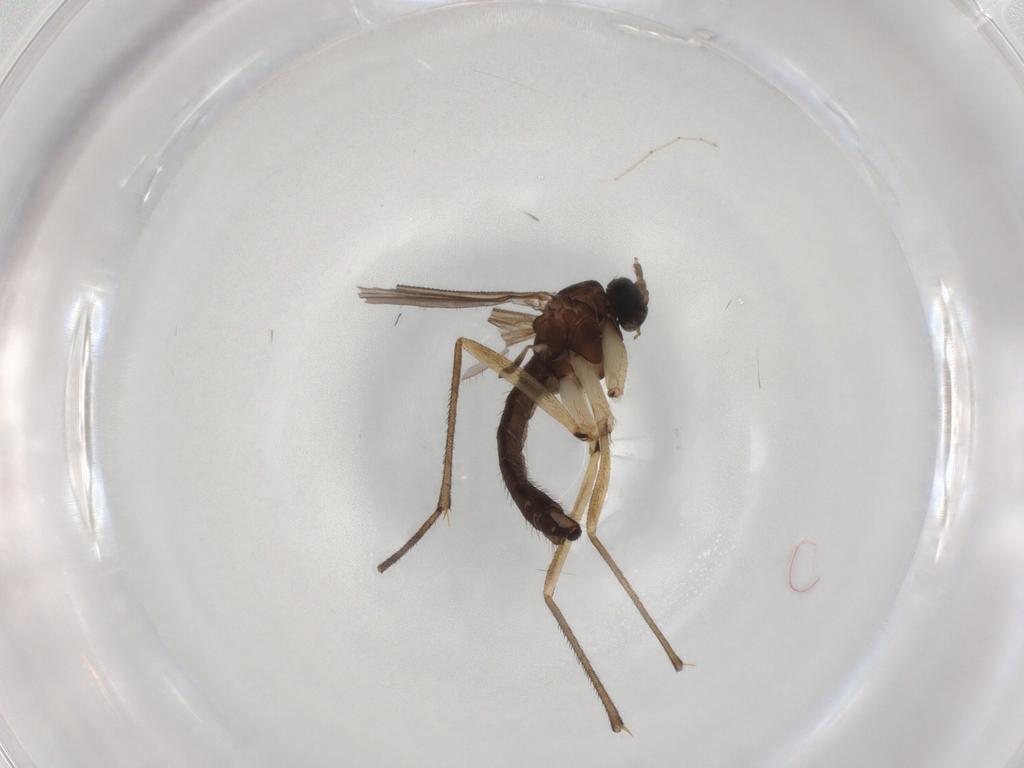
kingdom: Animalia
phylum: Arthropoda
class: Insecta
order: Diptera
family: Sciaridae
